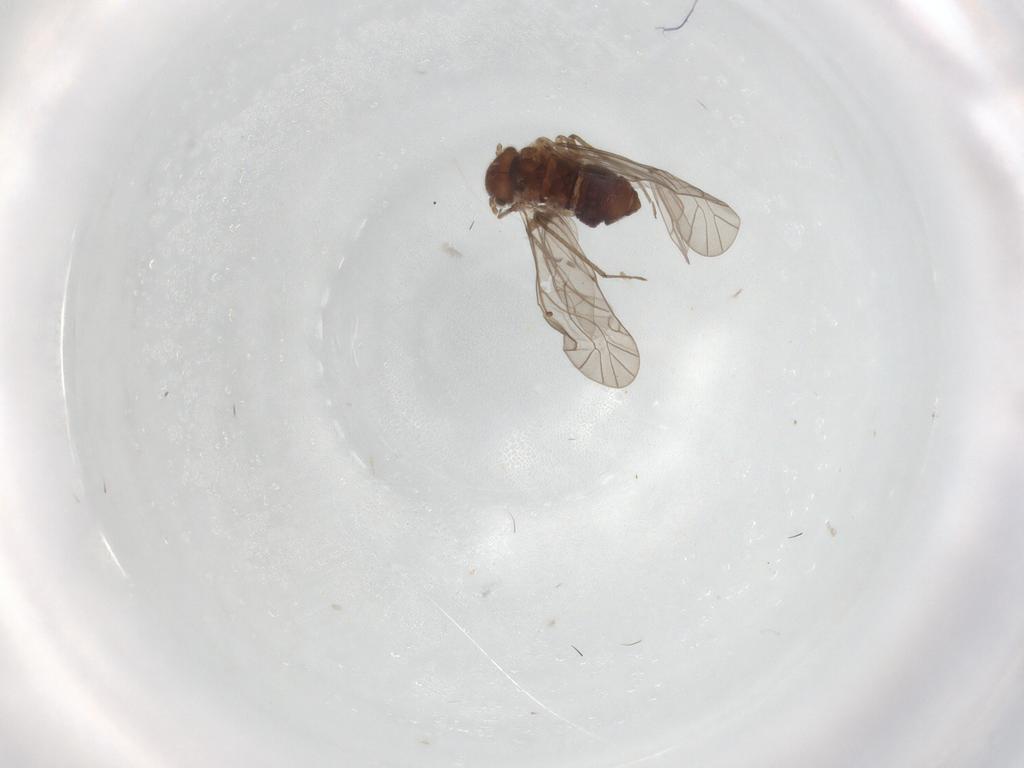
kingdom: Animalia
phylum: Arthropoda
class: Insecta
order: Psocodea
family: Lachesillidae
